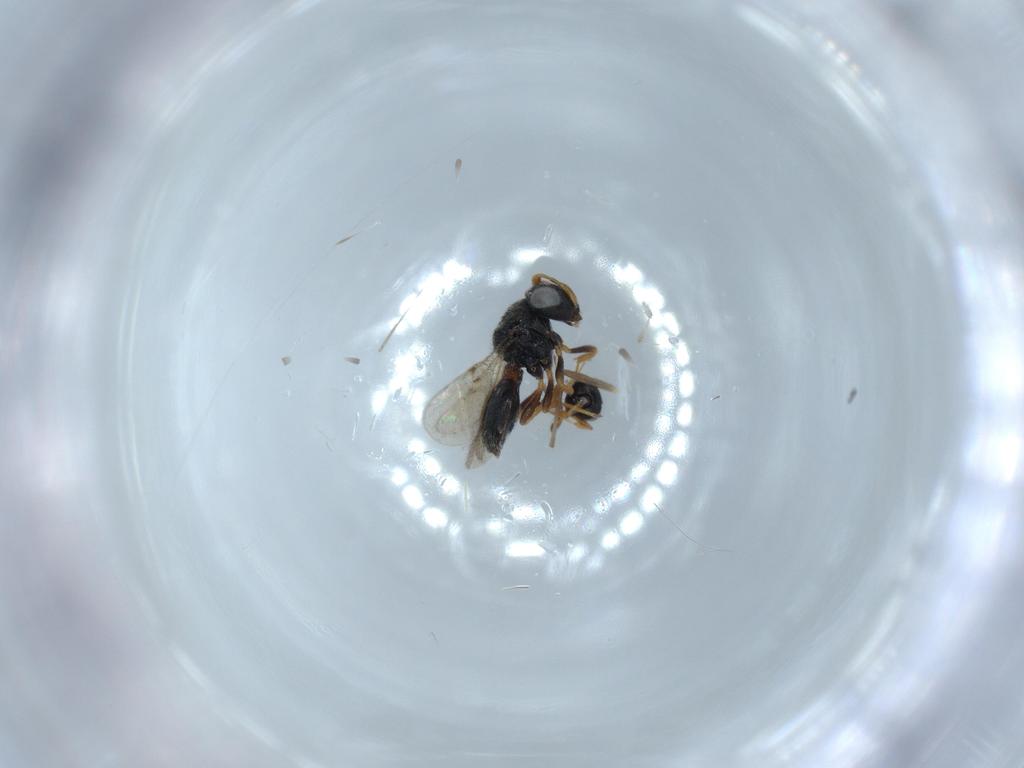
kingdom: Animalia
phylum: Arthropoda
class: Insecta
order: Hymenoptera
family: Scelionidae
